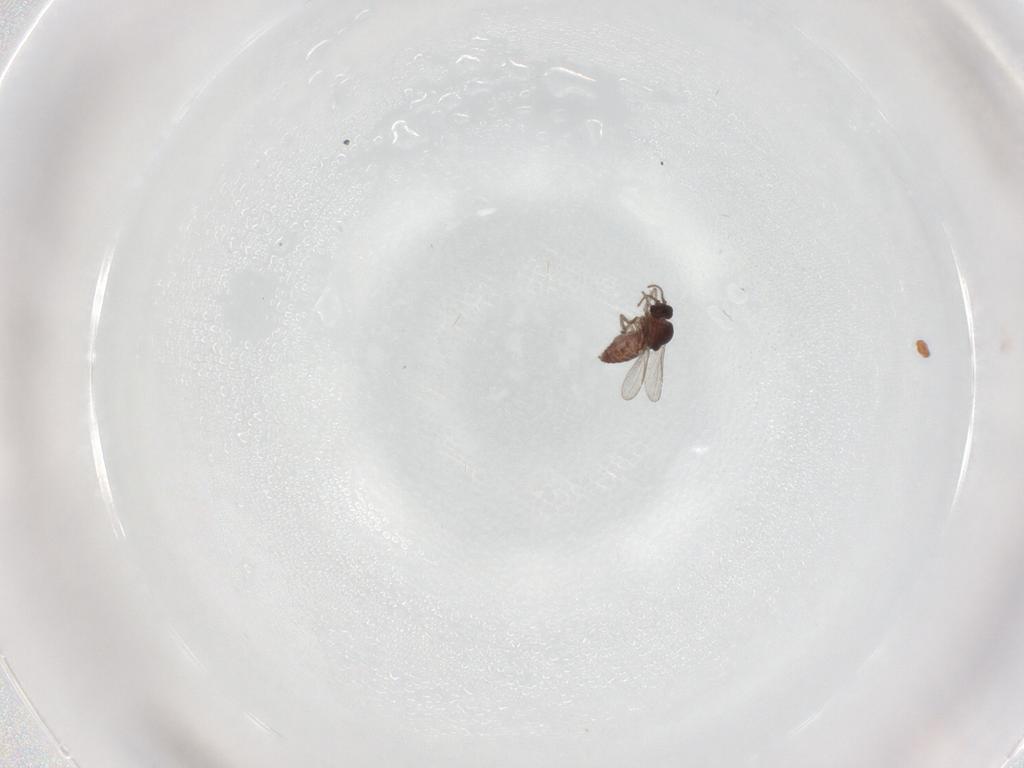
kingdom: Animalia
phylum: Arthropoda
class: Insecta
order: Diptera
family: Ceratopogonidae
